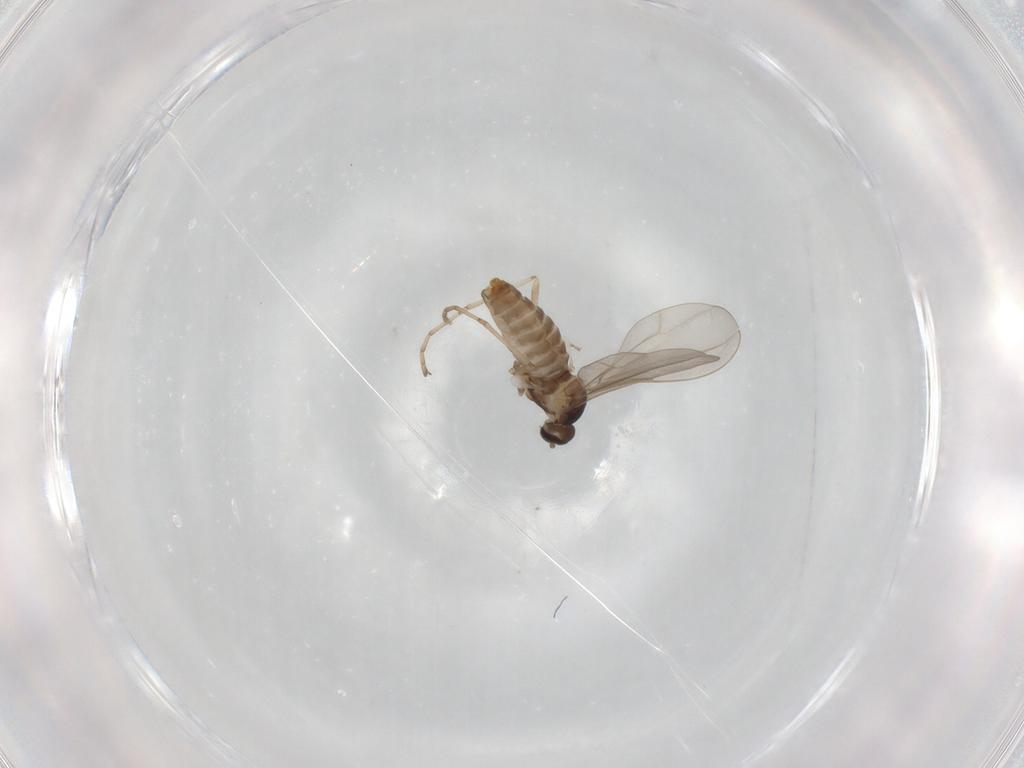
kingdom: Animalia
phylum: Arthropoda
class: Insecta
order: Diptera
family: Cecidomyiidae
